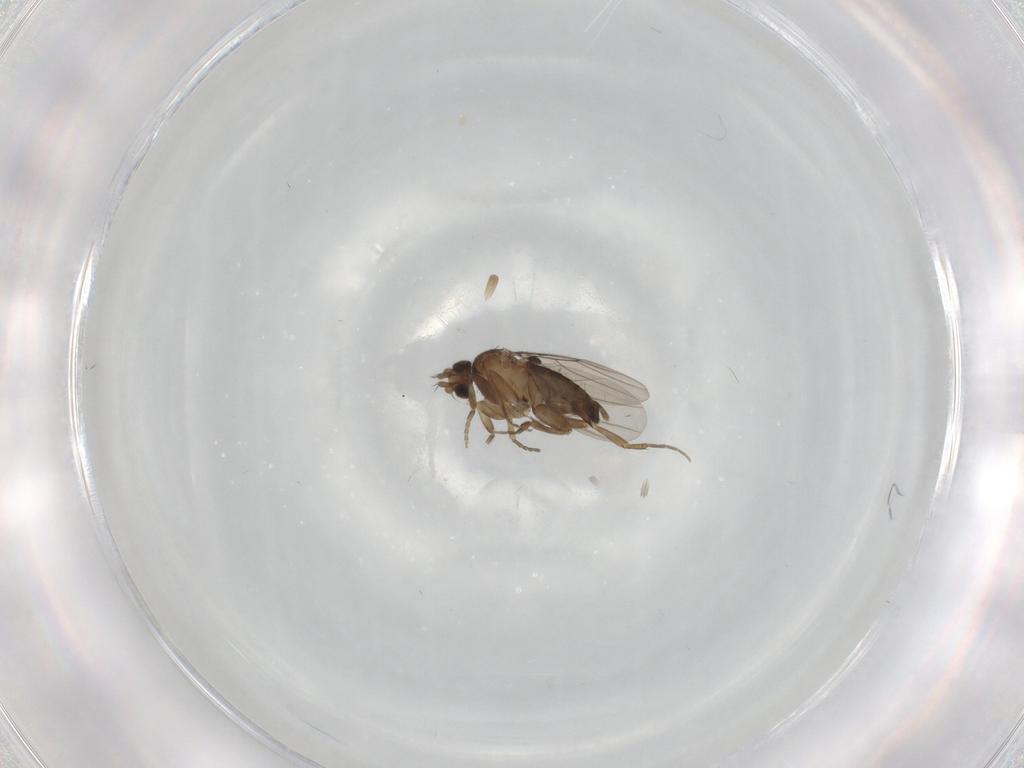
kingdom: Animalia
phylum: Arthropoda
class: Insecta
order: Diptera
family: Phoridae
